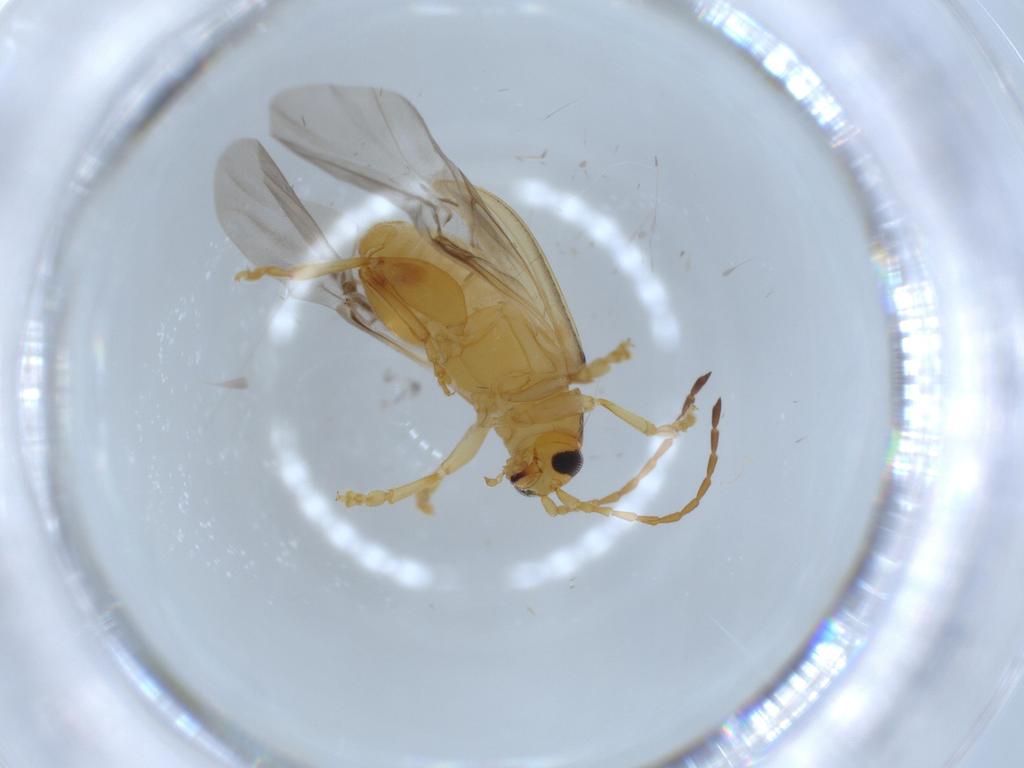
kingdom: Animalia
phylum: Arthropoda
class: Insecta
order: Coleoptera
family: Chrysomelidae
